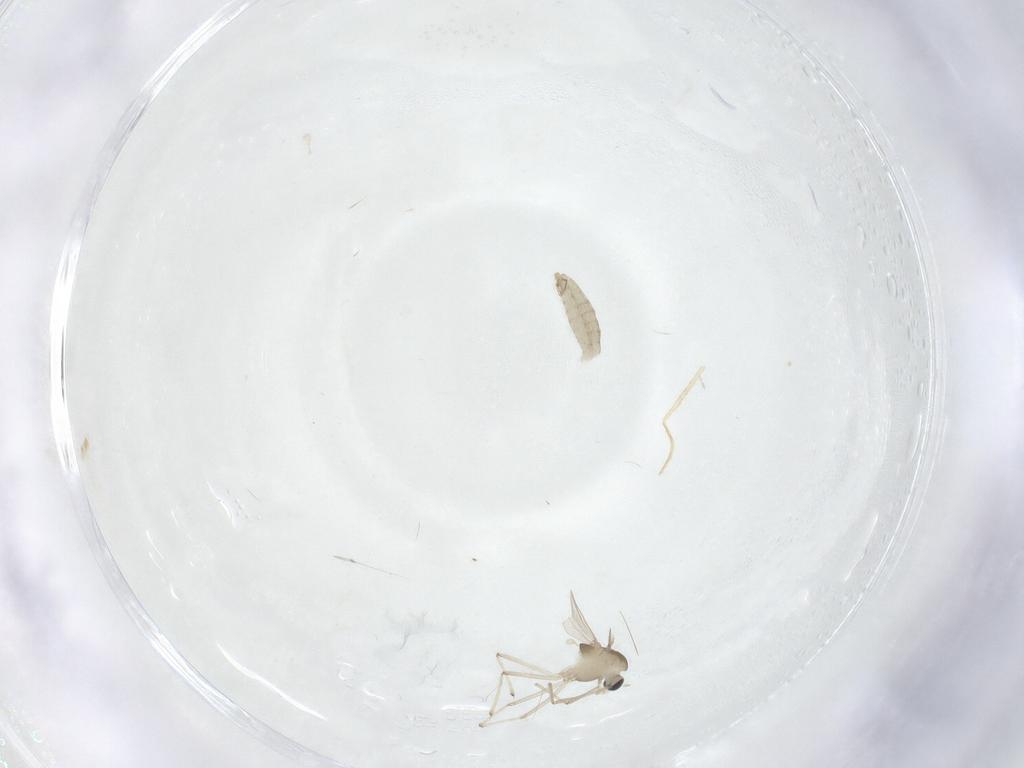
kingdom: Animalia
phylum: Arthropoda
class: Insecta
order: Diptera
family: Chironomidae
